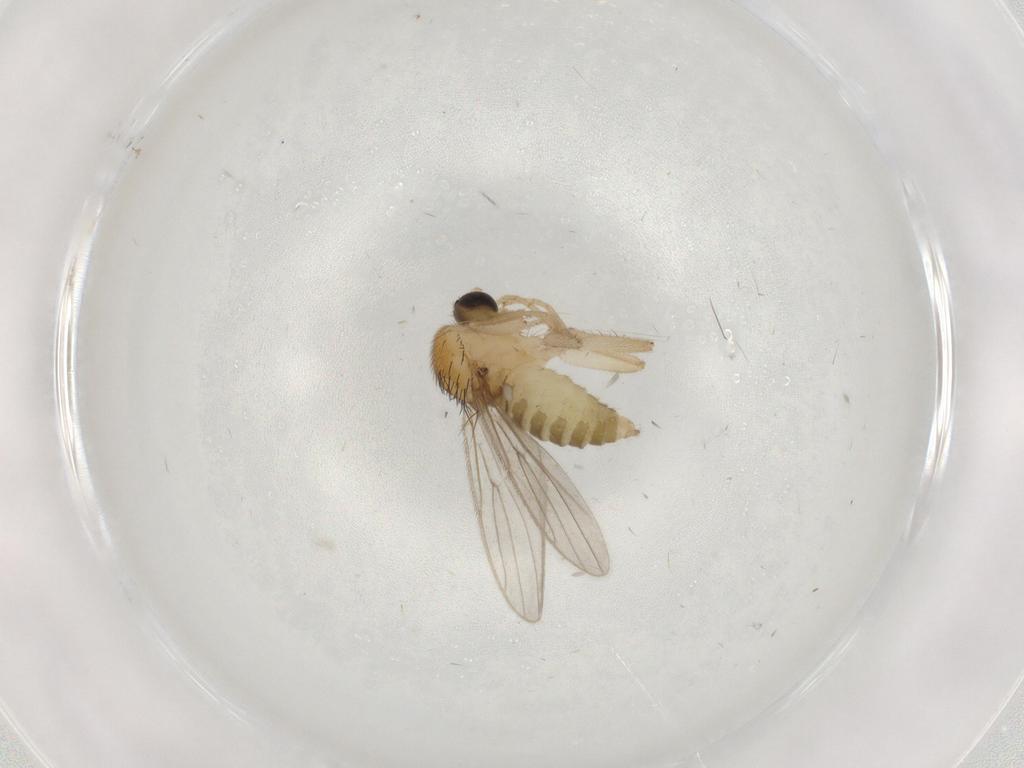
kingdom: Animalia
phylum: Arthropoda
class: Insecta
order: Diptera
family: Hybotidae
